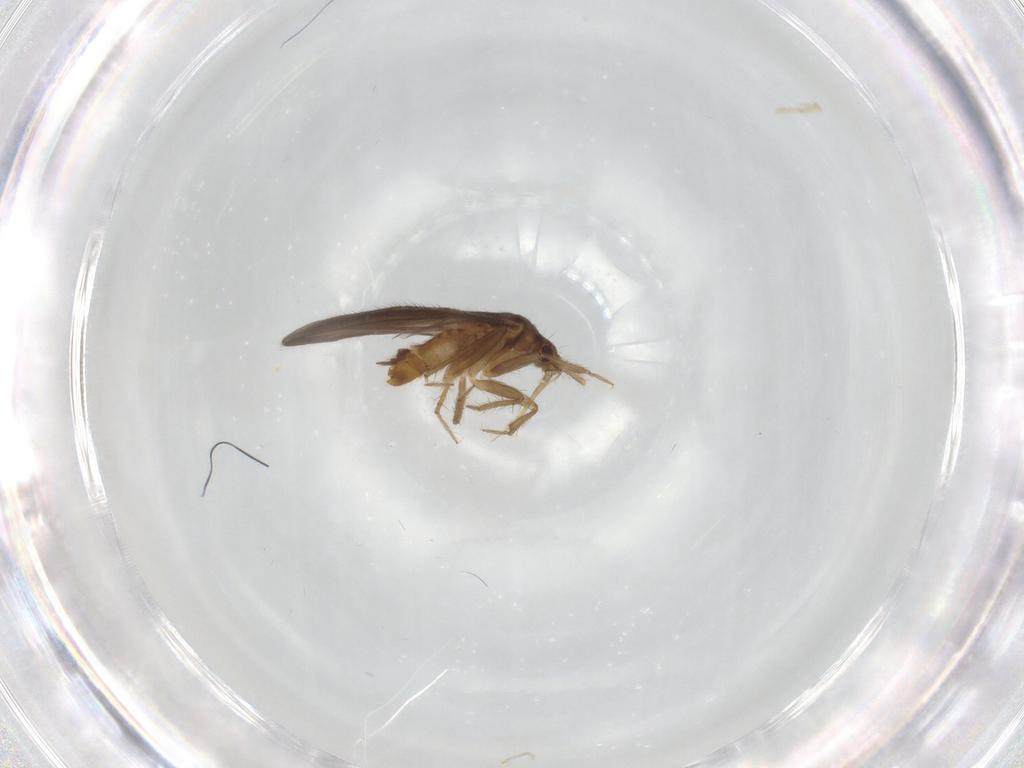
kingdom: Animalia
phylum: Arthropoda
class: Insecta
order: Hemiptera
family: Ceratocombidae
